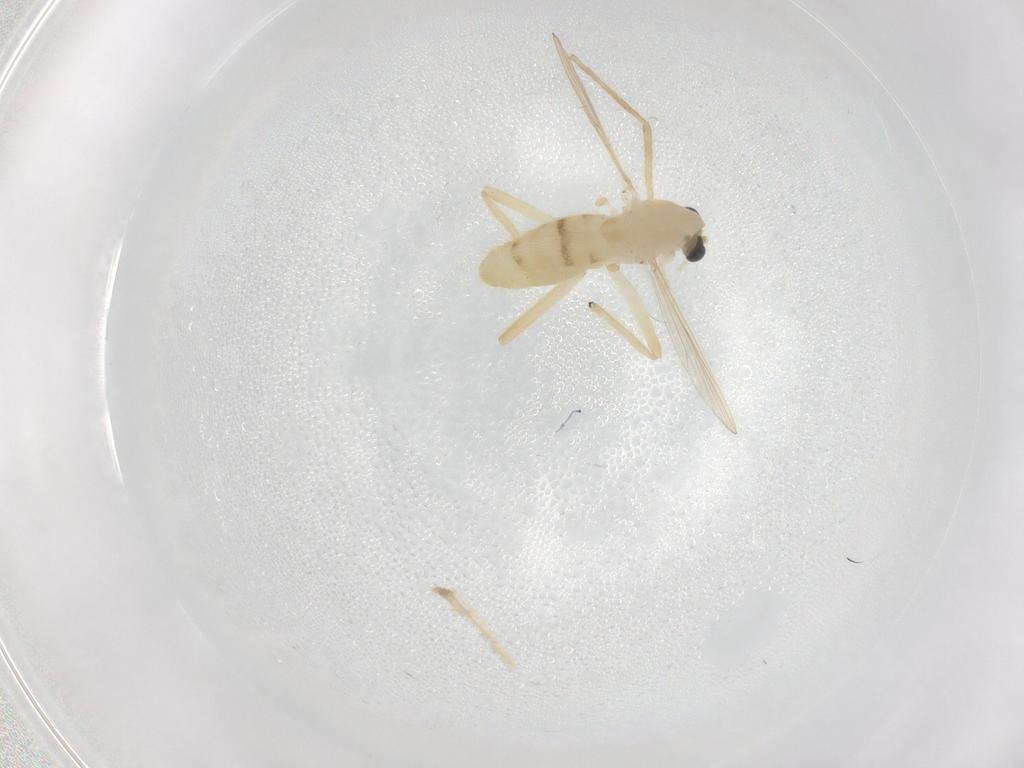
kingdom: Animalia
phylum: Arthropoda
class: Insecta
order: Diptera
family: Chironomidae
